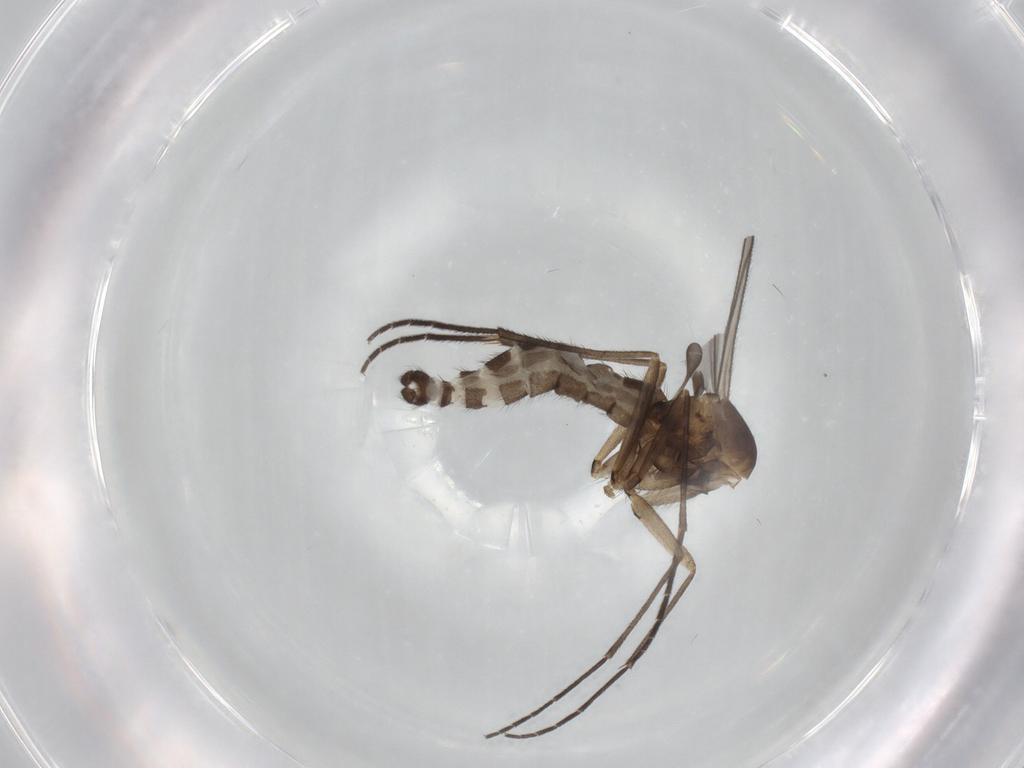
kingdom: Animalia
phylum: Arthropoda
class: Insecta
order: Diptera
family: Sciaridae
